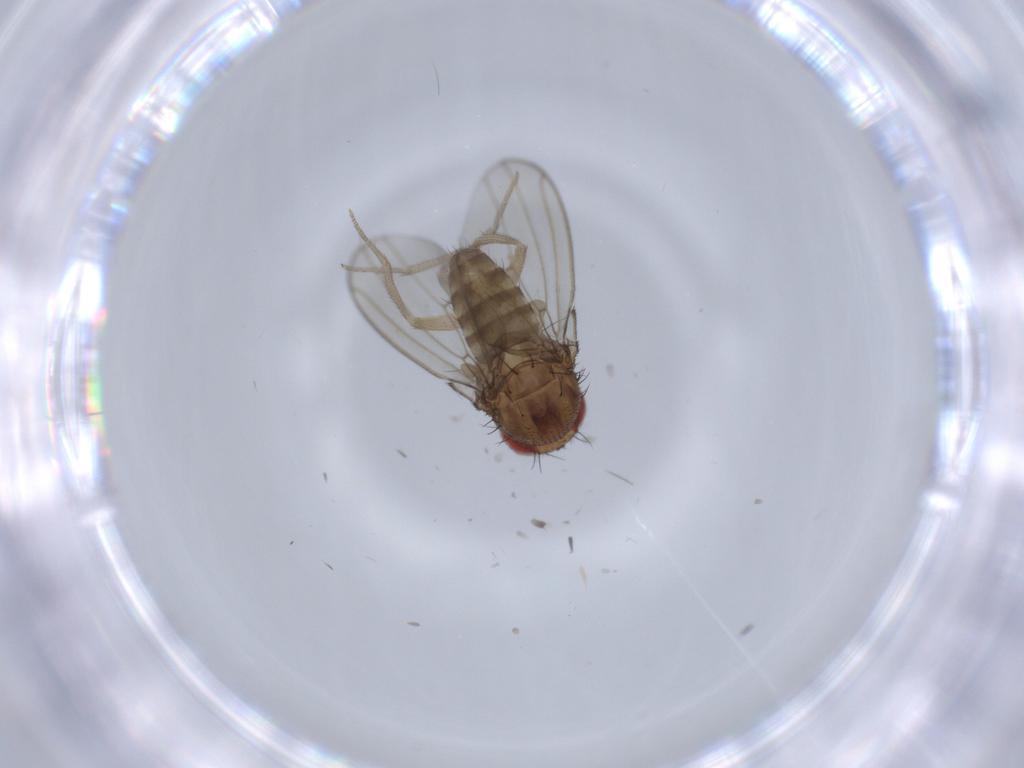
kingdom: Animalia
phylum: Arthropoda
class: Insecta
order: Diptera
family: Drosophilidae
